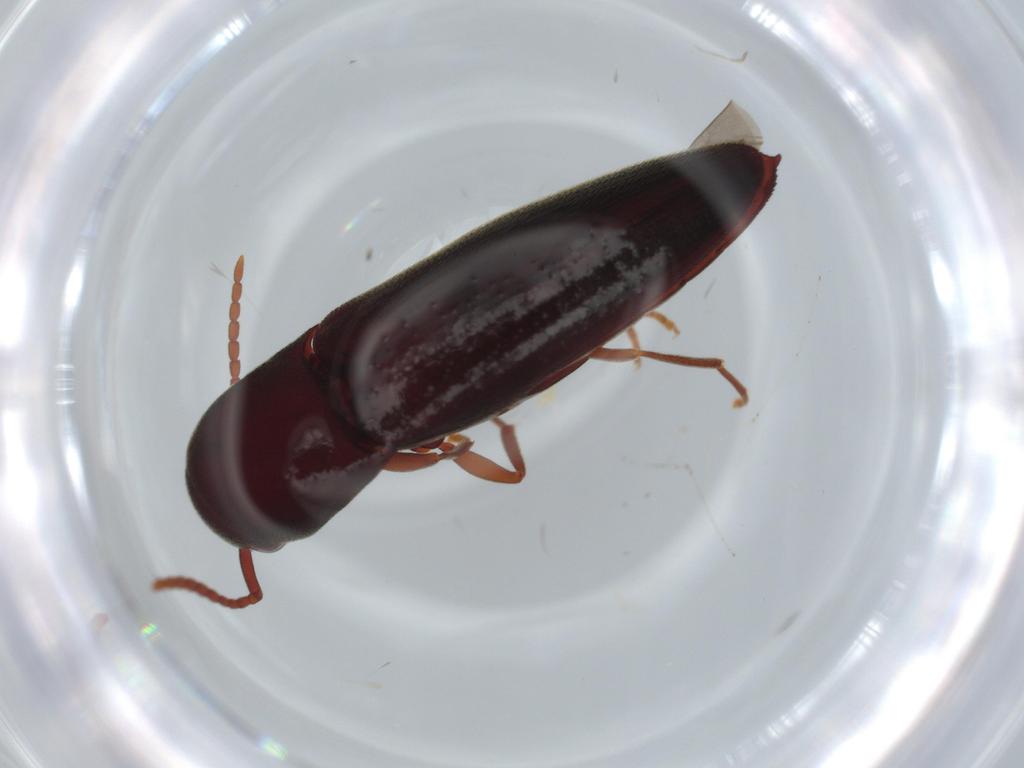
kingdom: Animalia
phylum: Arthropoda
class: Insecta
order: Coleoptera
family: Eucnemidae
